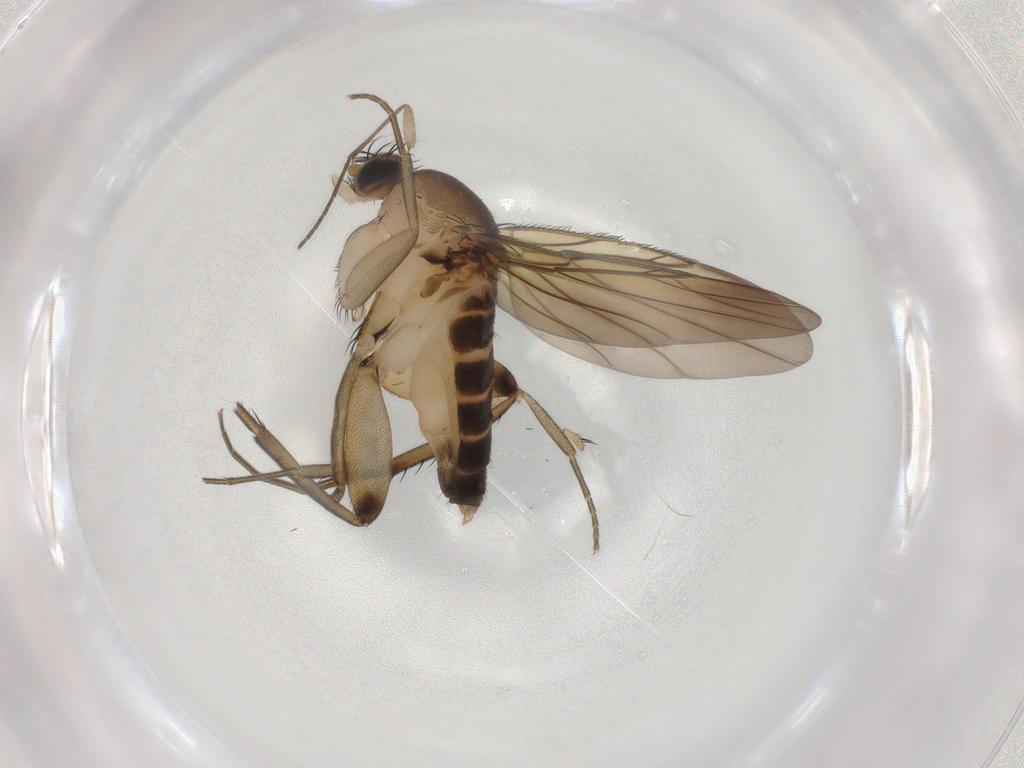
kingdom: Animalia
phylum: Arthropoda
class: Insecta
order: Diptera
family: Phoridae
